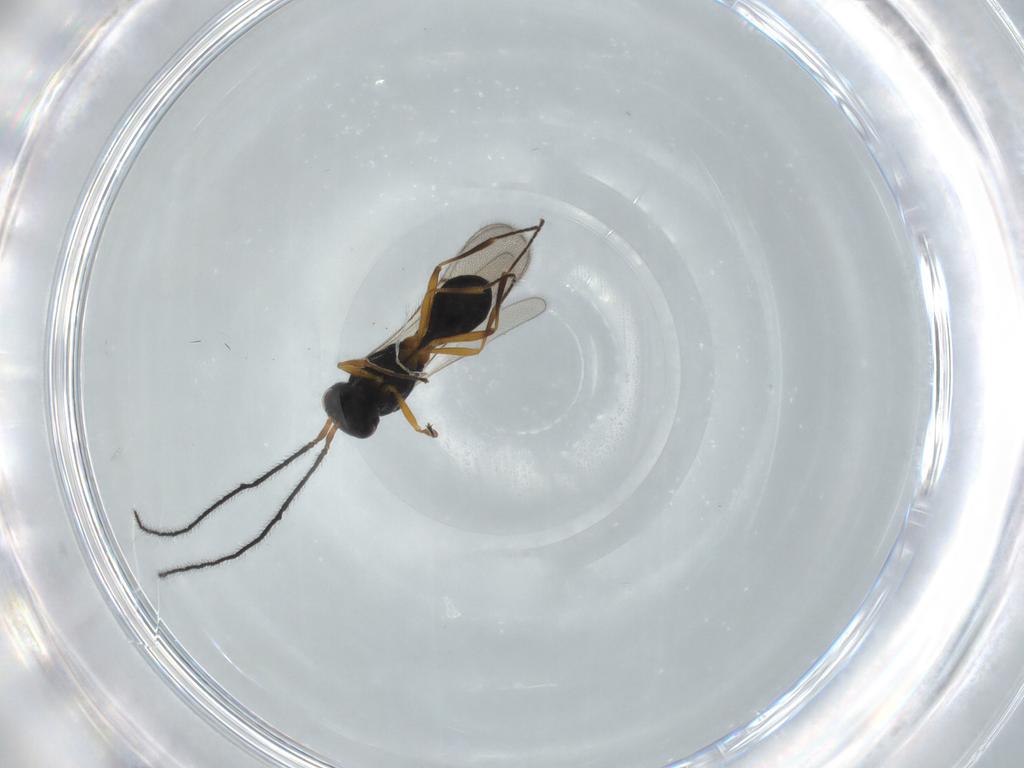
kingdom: Animalia
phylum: Arthropoda
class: Insecta
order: Hymenoptera
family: Scelionidae
